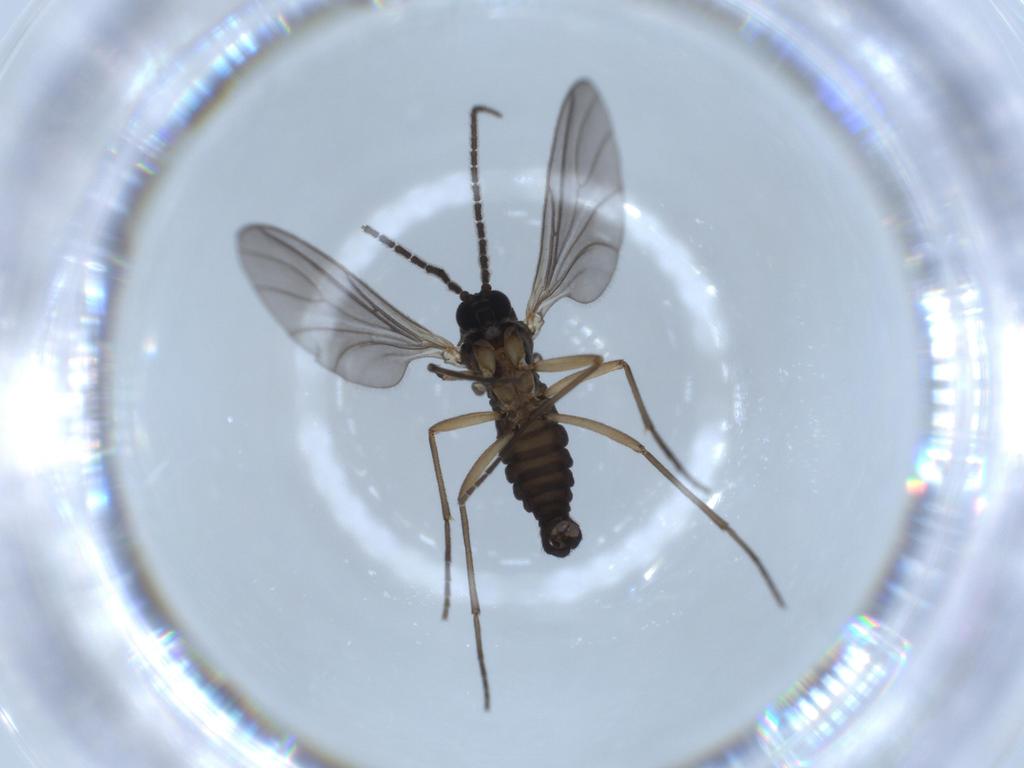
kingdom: Animalia
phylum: Arthropoda
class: Insecta
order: Diptera
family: Sciaridae
